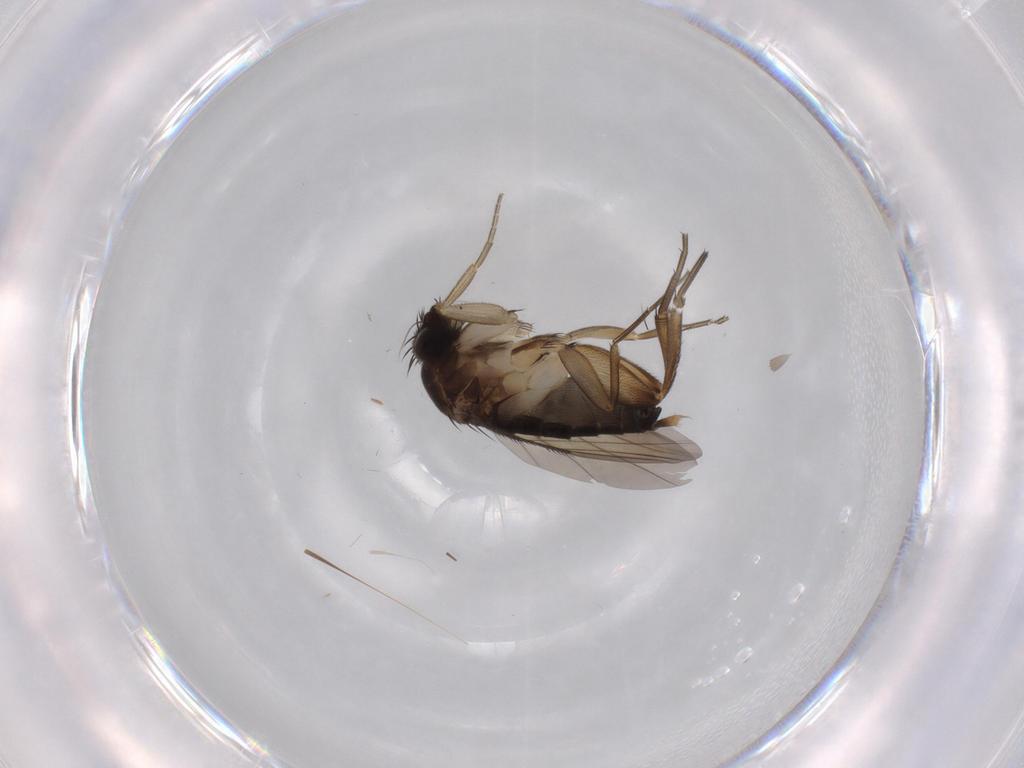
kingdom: Animalia
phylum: Arthropoda
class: Insecta
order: Diptera
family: Phoridae
